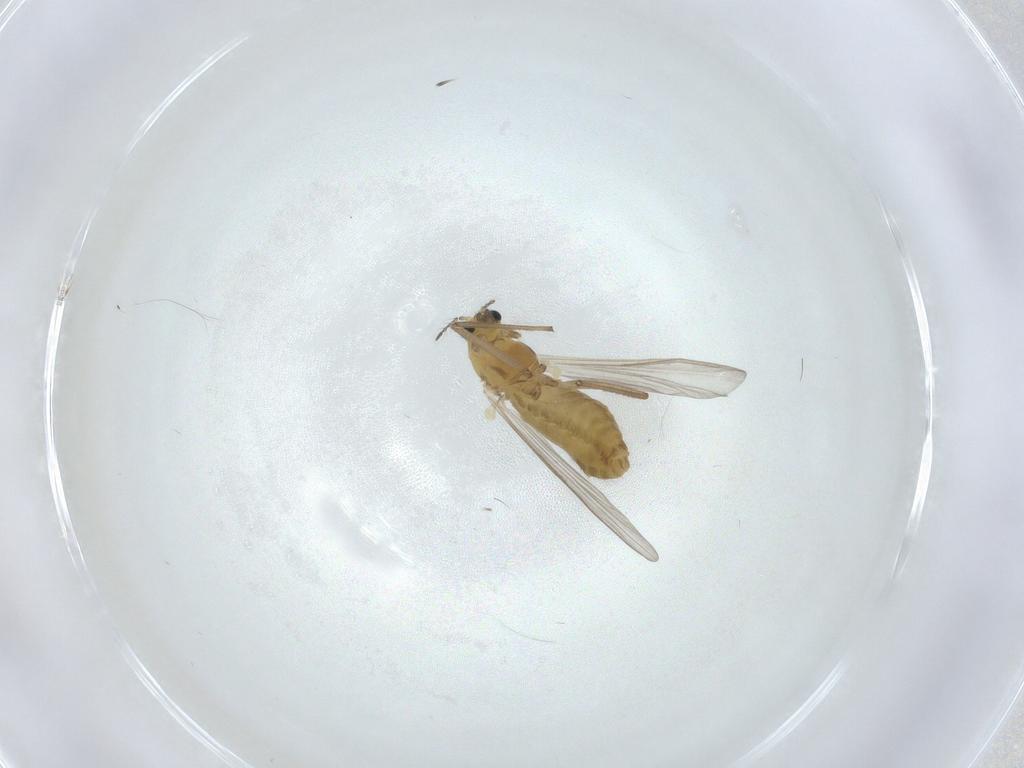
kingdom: Animalia
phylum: Arthropoda
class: Insecta
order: Diptera
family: Chironomidae
